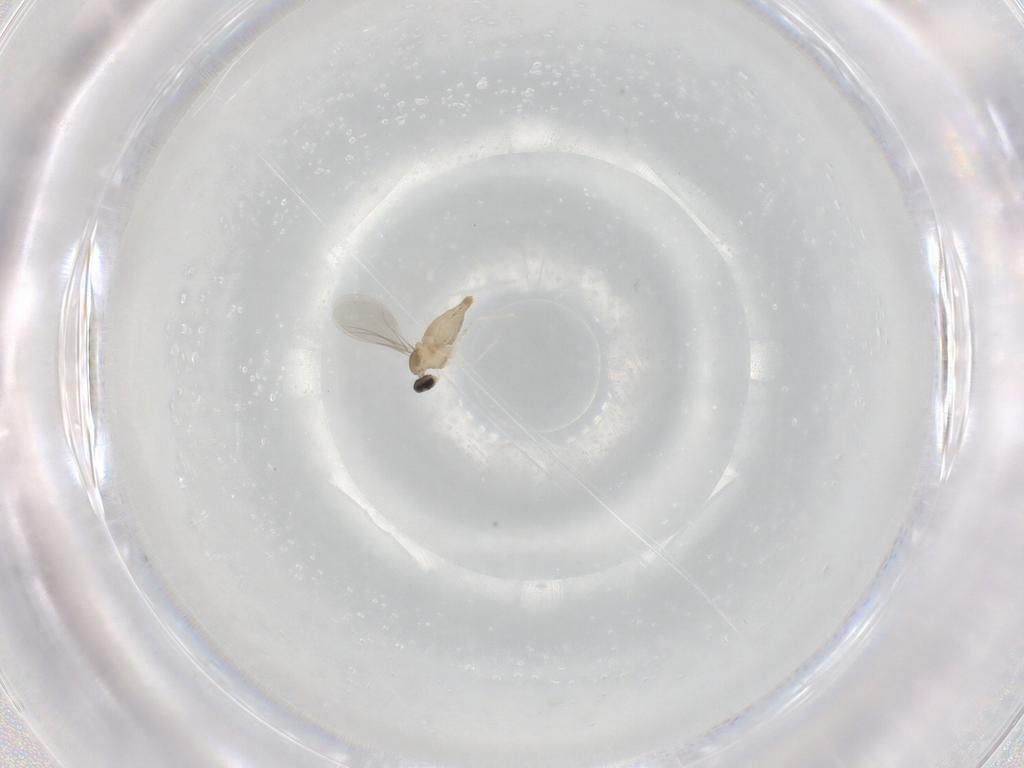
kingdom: Animalia
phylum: Arthropoda
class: Insecta
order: Diptera
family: Cecidomyiidae
